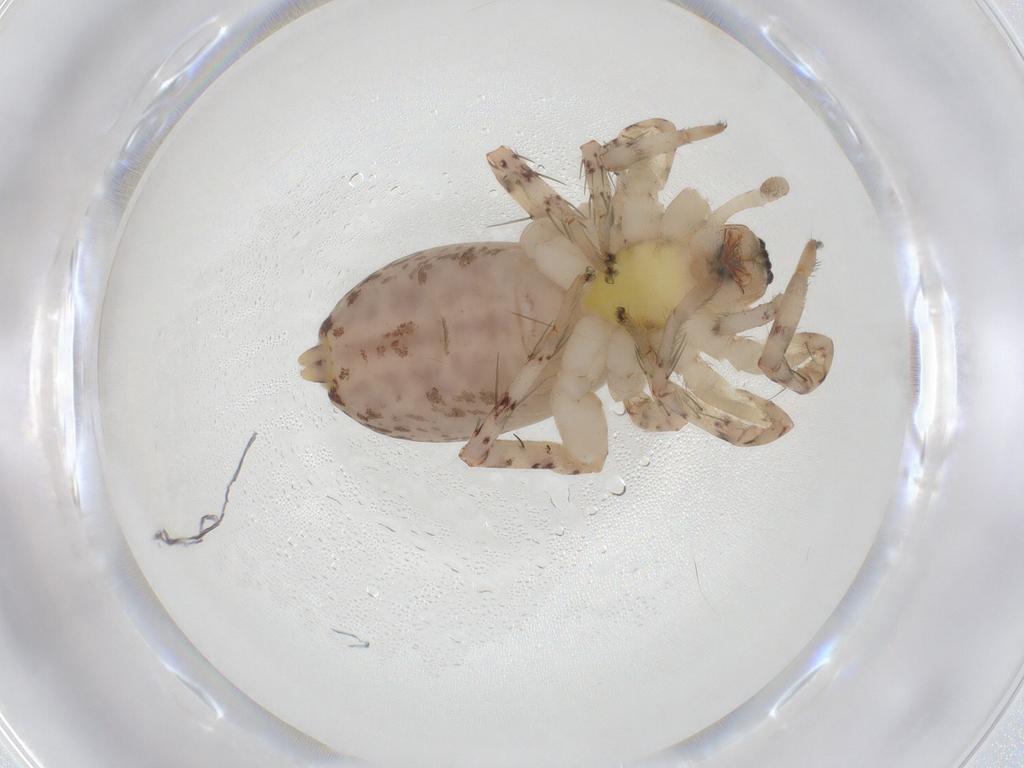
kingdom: Animalia
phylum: Arthropoda
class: Arachnida
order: Araneae
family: Anyphaenidae
